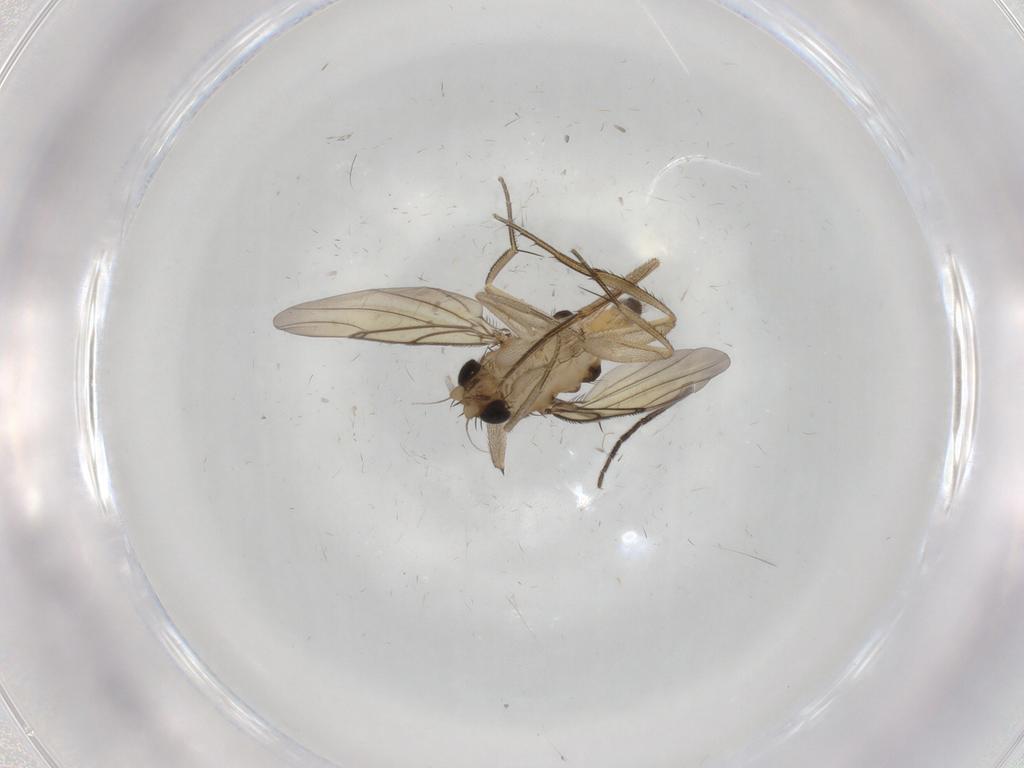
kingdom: Animalia
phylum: Arthropoda
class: Insecta
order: Diptera
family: Sciaridae
